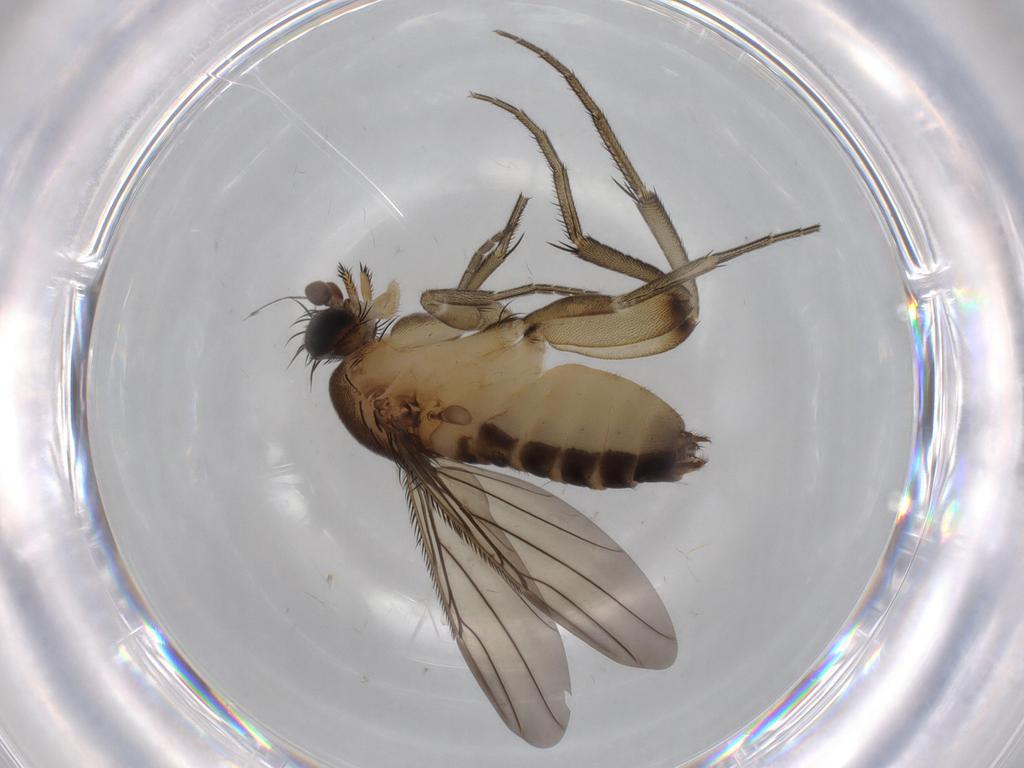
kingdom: Animalia
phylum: Arthropoda
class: Insecta
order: Diptera
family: Phoridae
